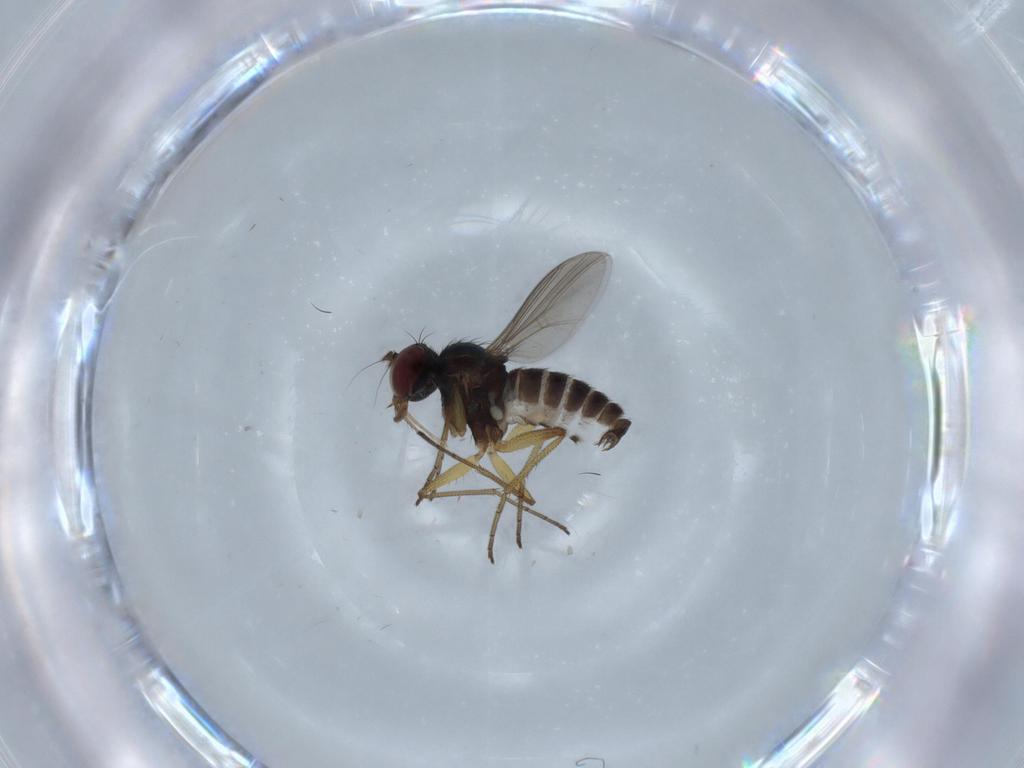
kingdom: Animalia
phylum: Arthropoda
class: Insecta
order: Diptera
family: Dolichopodidae
